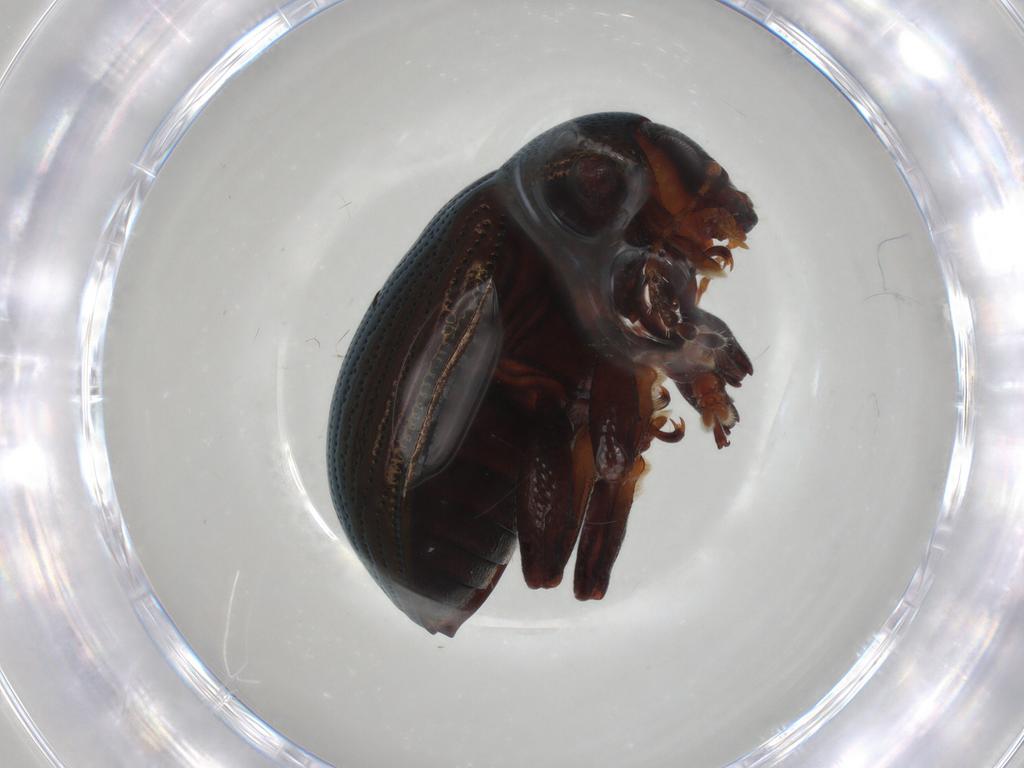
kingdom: Animalia
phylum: Arthropoda
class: Insecta
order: Coleoptera
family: Chrysomelidae
